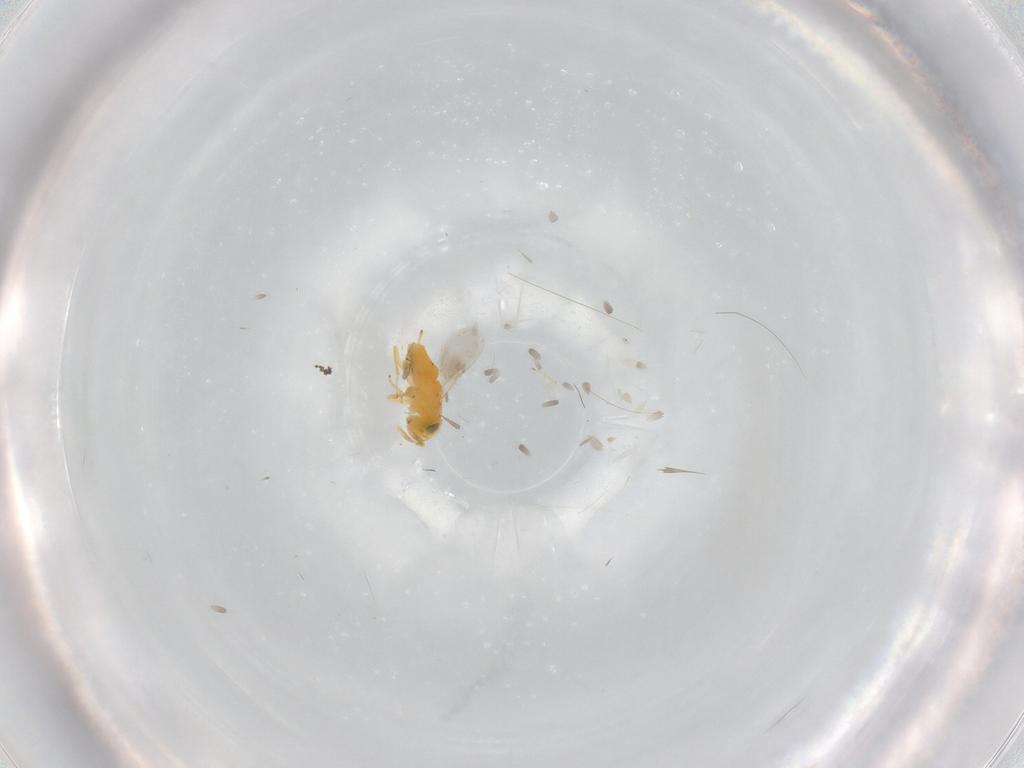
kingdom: Animalia
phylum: Arthropoda
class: Insecta
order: Hymenoptera
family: Encyrtidae
